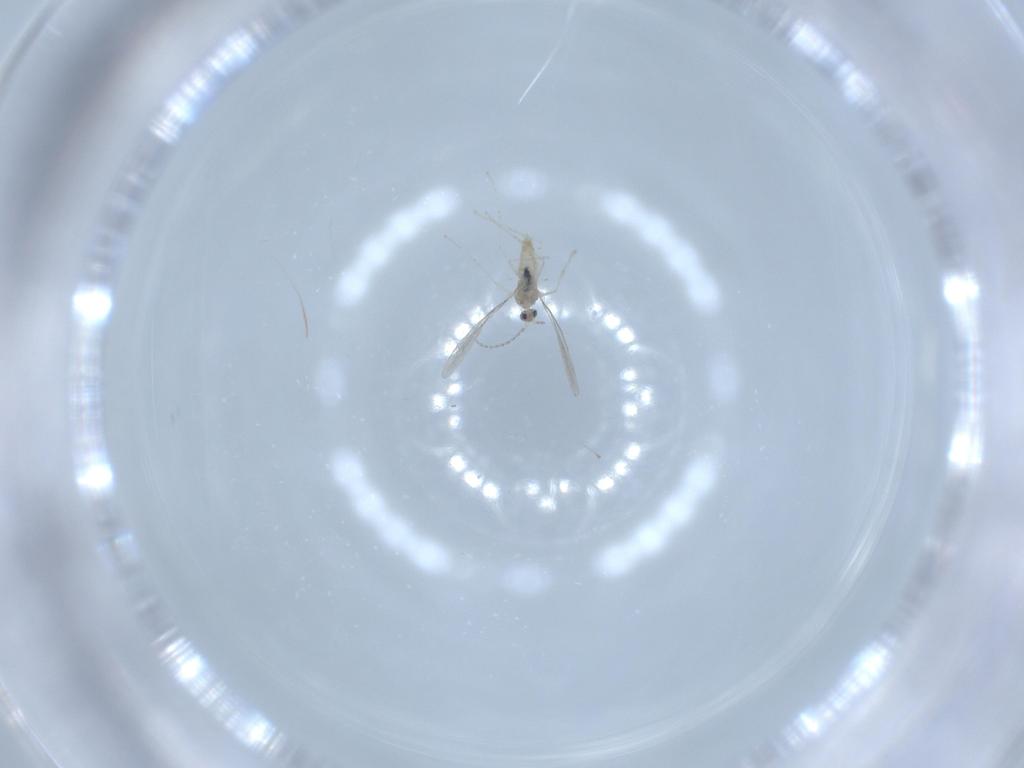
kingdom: Animalia
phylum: Arthropoda
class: Insecta
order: Diptera
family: Cecidomyiidae
